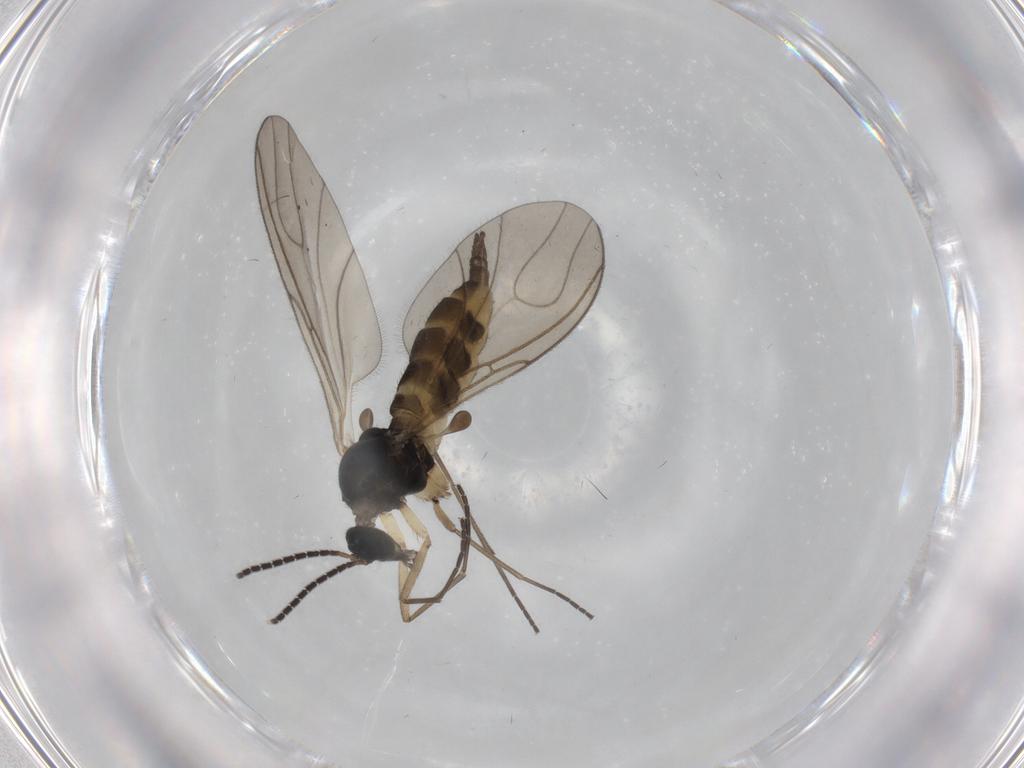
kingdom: Animalia
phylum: Arthropoda
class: Insecta
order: Diptera
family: Sciaridae
